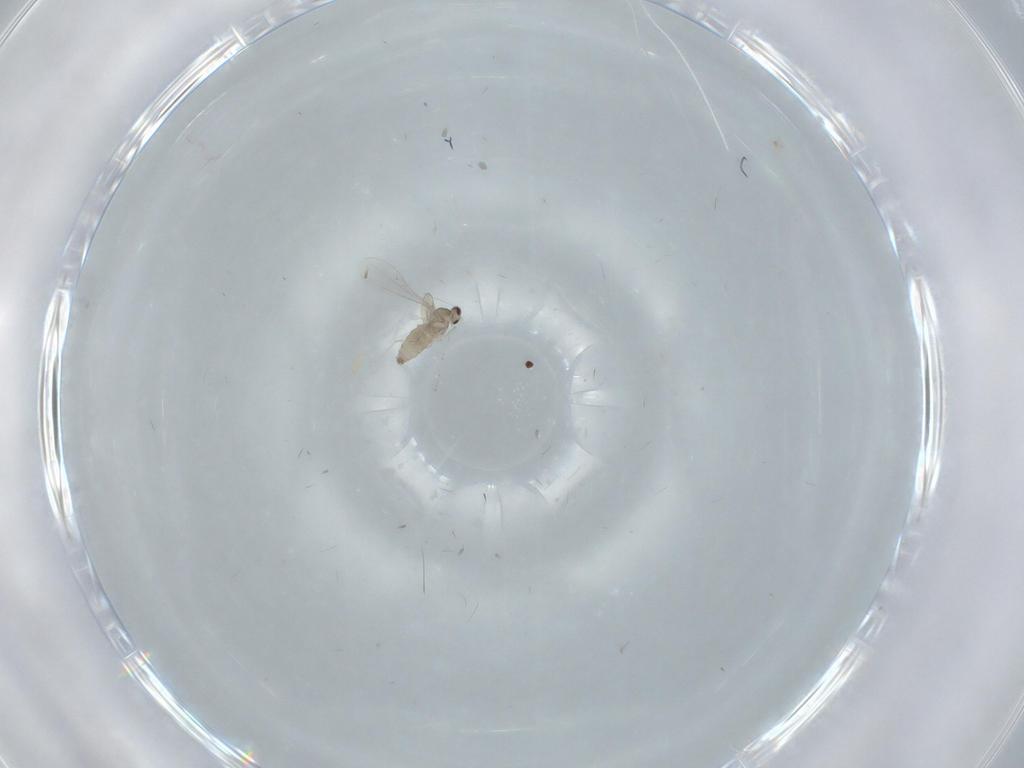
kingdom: Animalia
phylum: Arthropoda
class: Insecta
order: Diptera
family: Cecidomyiidae
